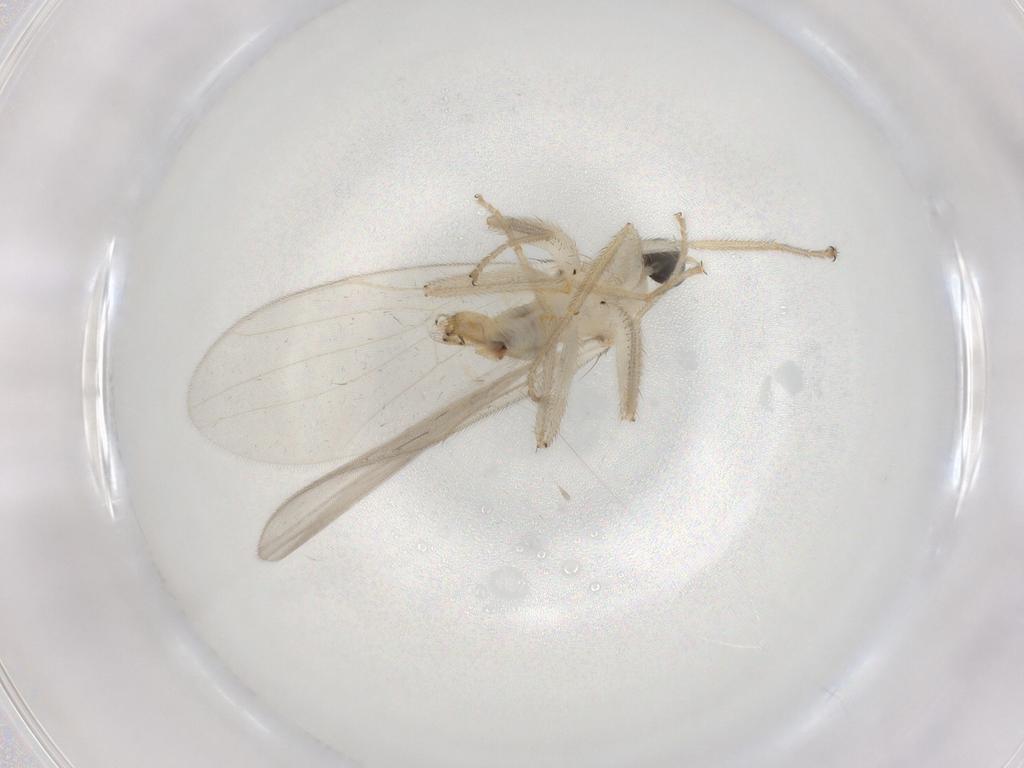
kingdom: Animalia
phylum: Arthropoda
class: Insecta
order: Diptera
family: Hybotidae
